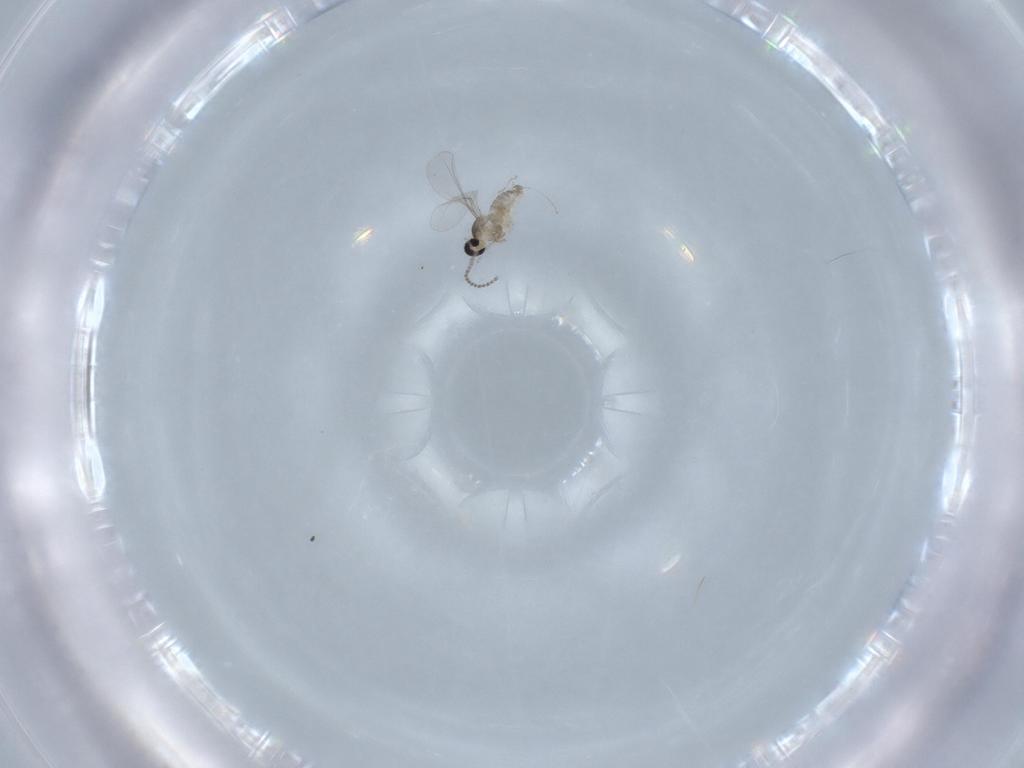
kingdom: Animalia
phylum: Arthropoda
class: Insecta
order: Diptera
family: Cecidomyiidae
